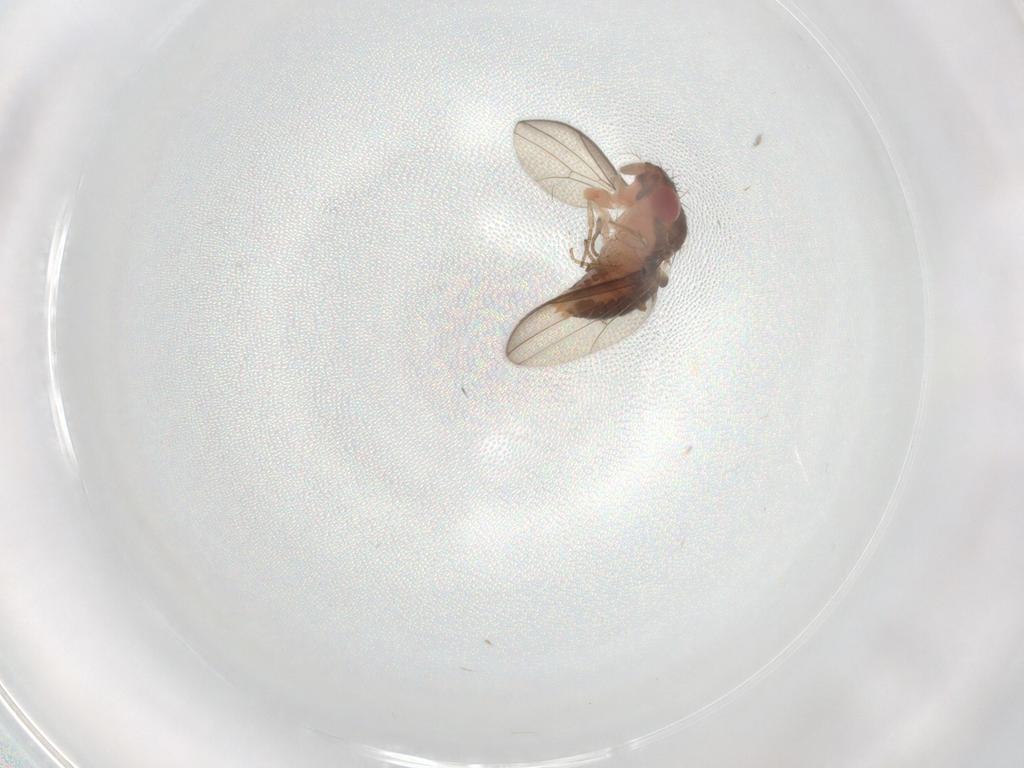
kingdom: Animalia
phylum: Arthropoda
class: Insecta
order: Diptera
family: Drosophilidae
